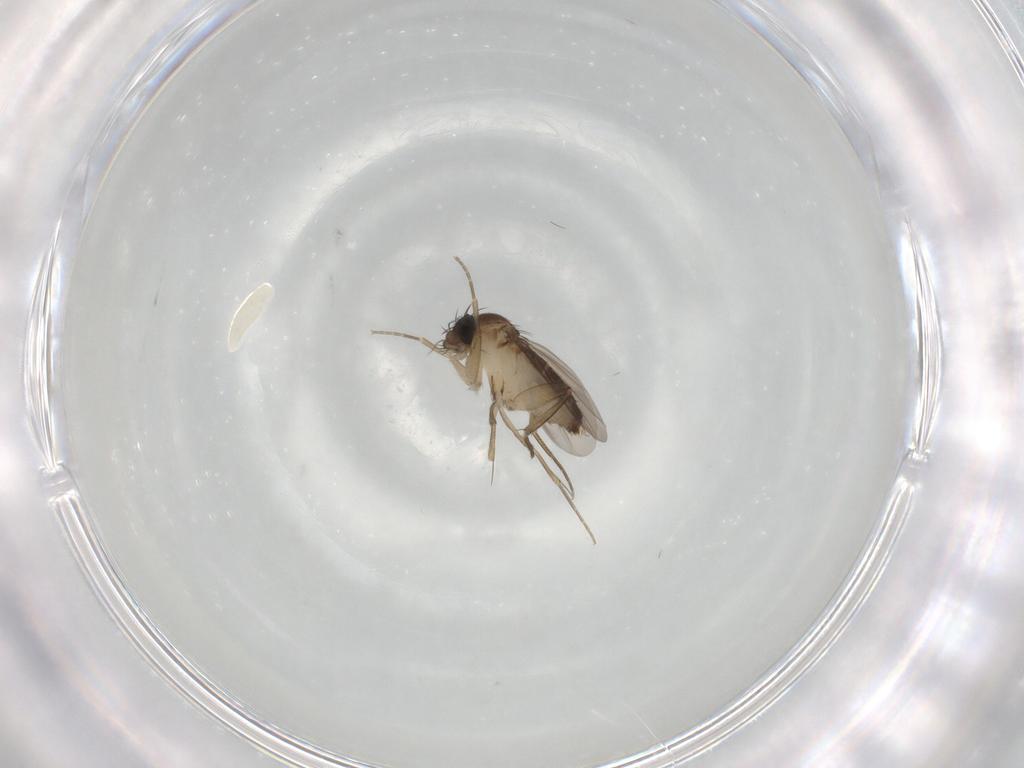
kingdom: Animalia
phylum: Arthropoda
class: Insecta
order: Diptera
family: Phoridae
